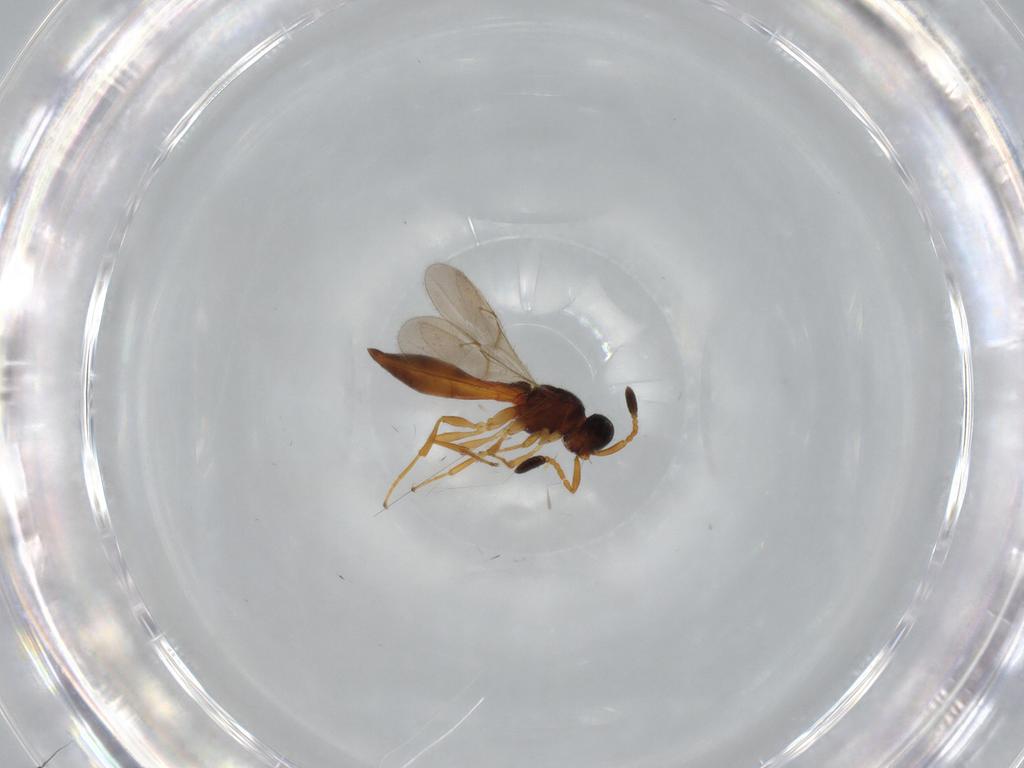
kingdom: Animalia
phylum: Arthropoda
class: Insecta
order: Hymenoptera
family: Scelionidae
